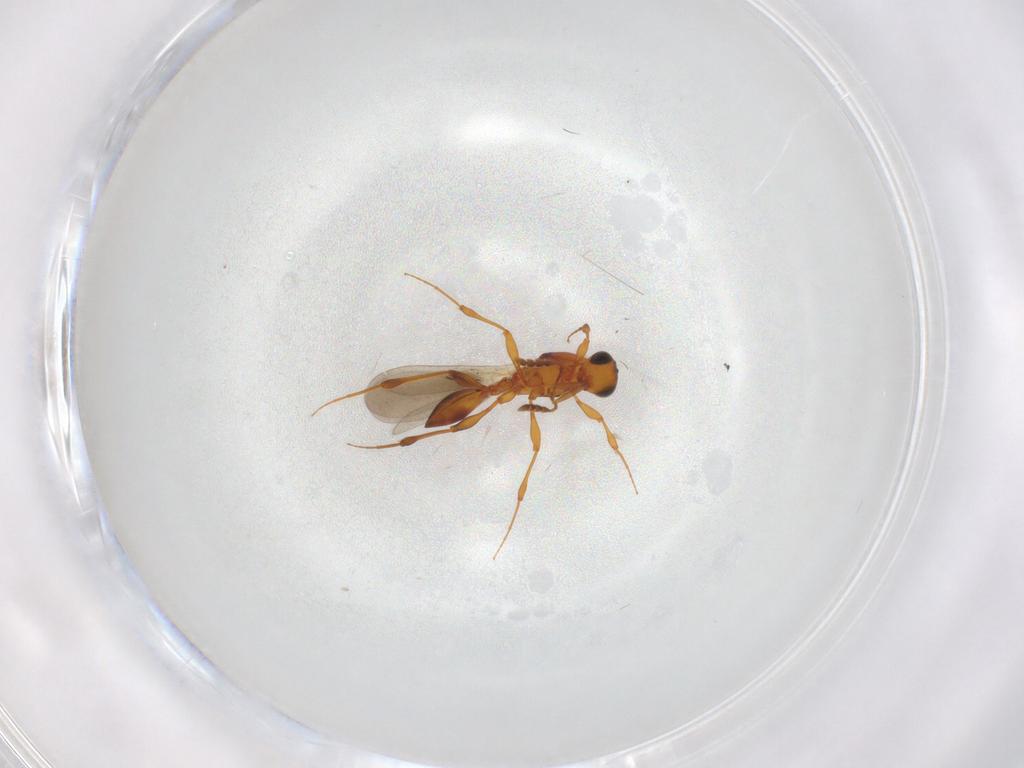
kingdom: Animalia
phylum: Arthropoda
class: Insecta
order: Hymenoptera
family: Platygastridae
